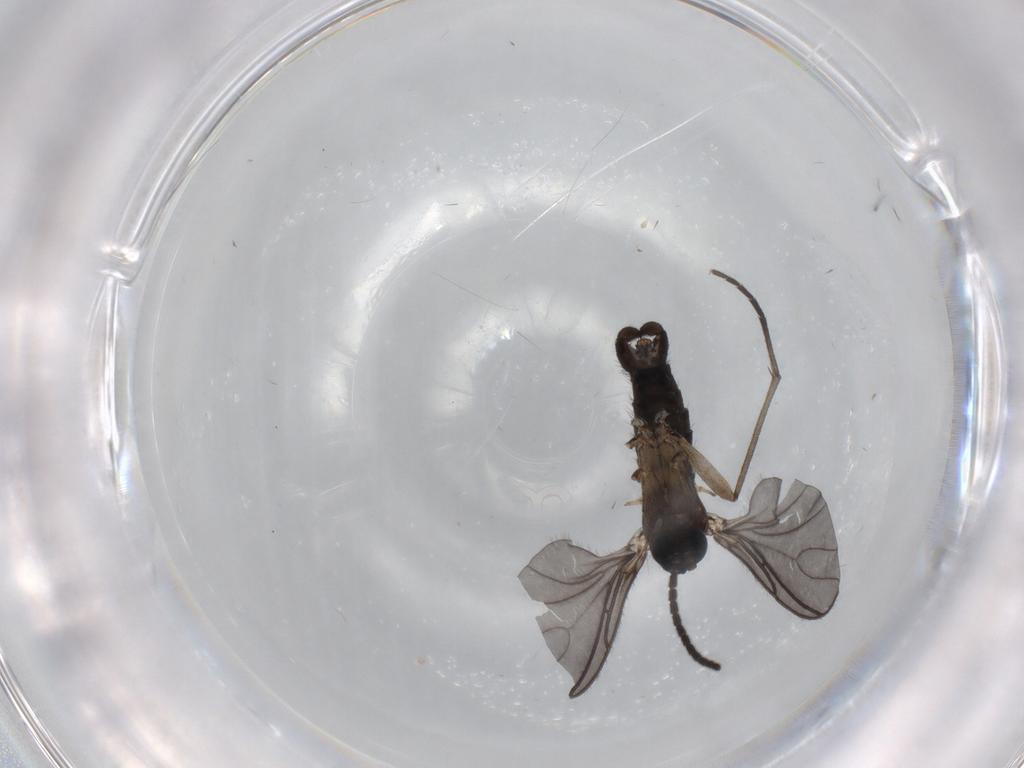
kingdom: Animalia
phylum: Arthropoda
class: Insecta
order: Diptera
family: Sciaridae
